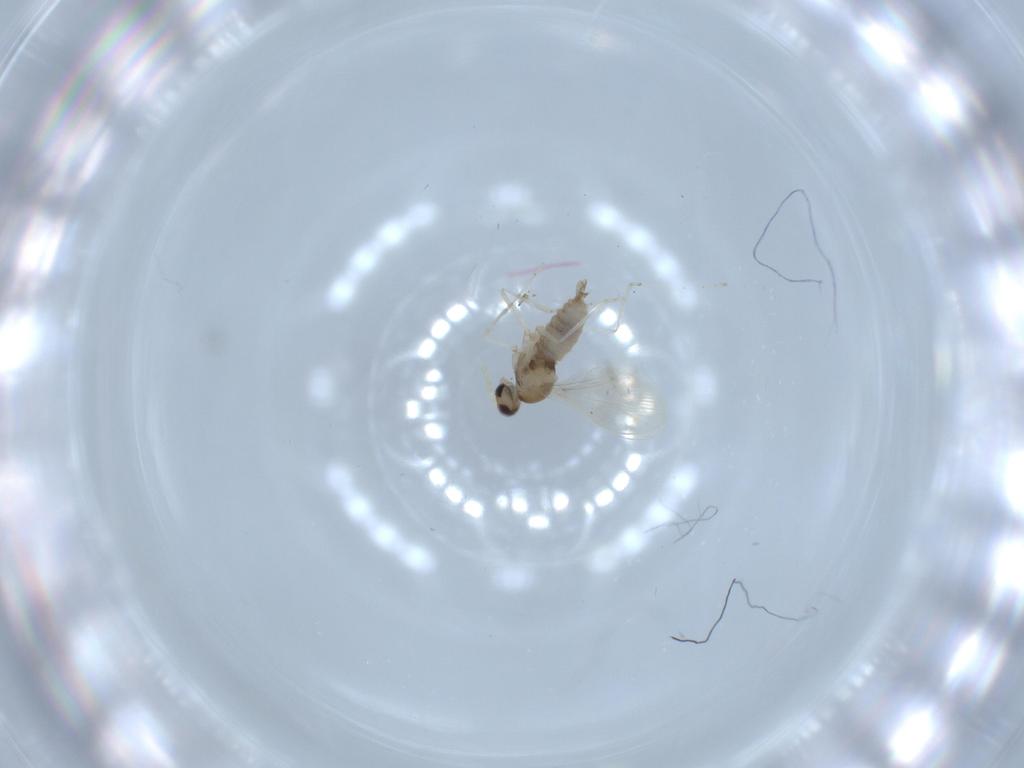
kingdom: Animalia
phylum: Arthropoda
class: Insecta
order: Diptera
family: Cecidomyiidae
